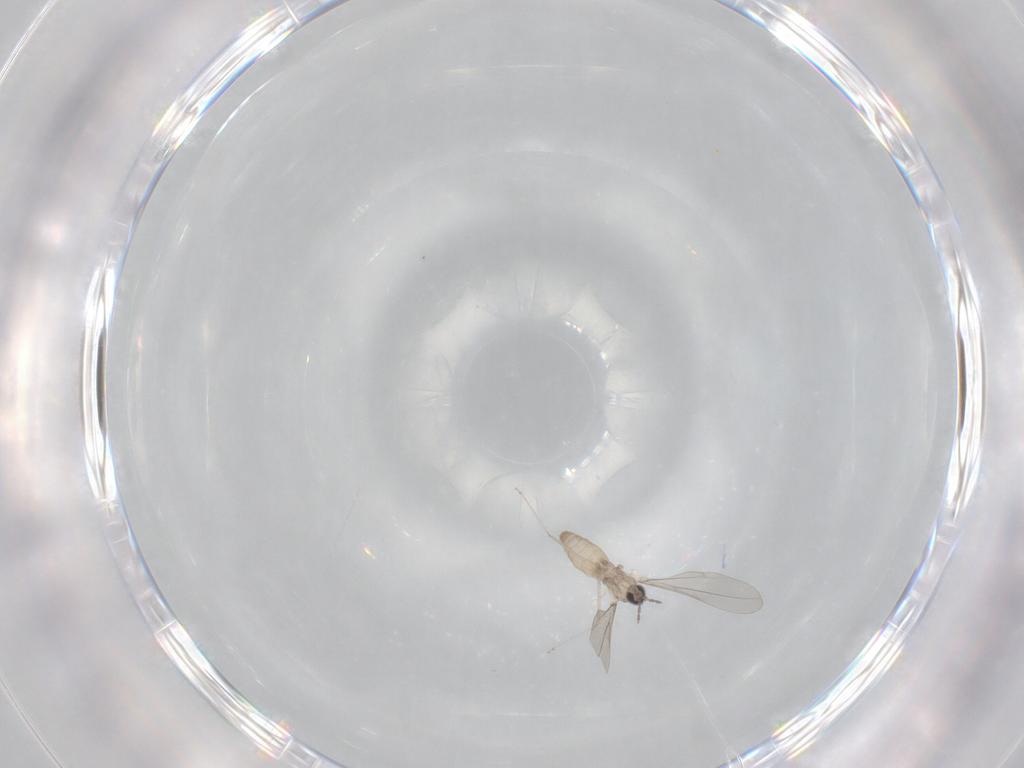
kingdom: Animalia
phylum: Arthropoda
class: Insecta
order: Diptera
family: Cecidomyiidae
